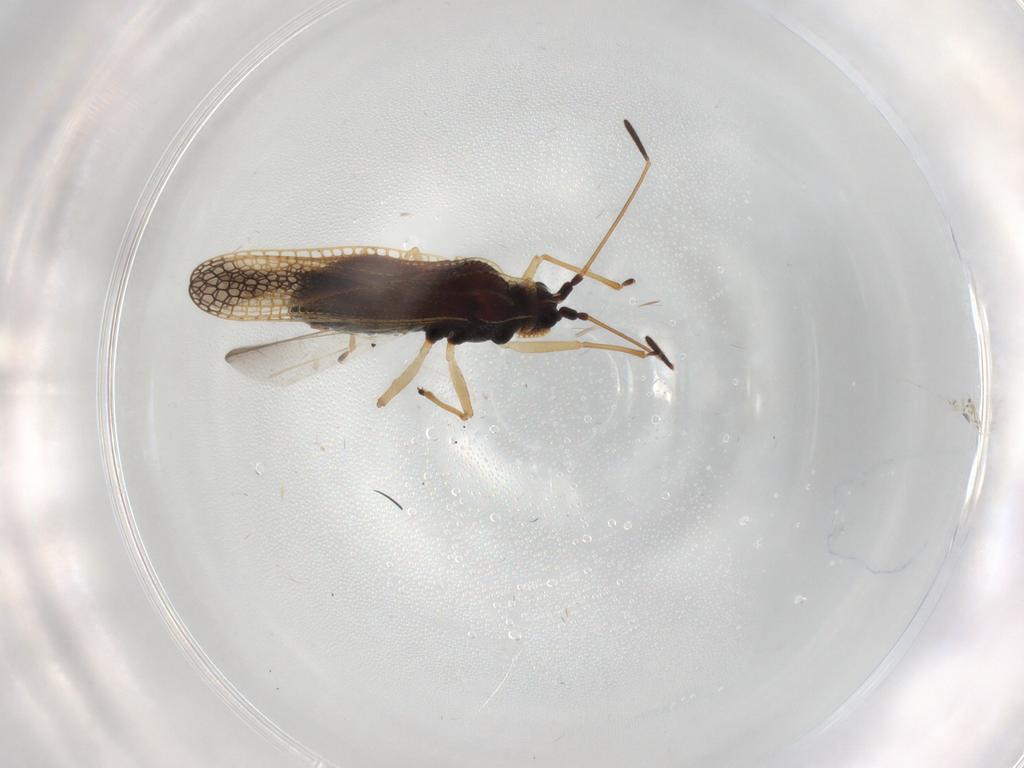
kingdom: Animalia
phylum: Arthropoda
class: Insecta
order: Hemiptera
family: Tingidae
